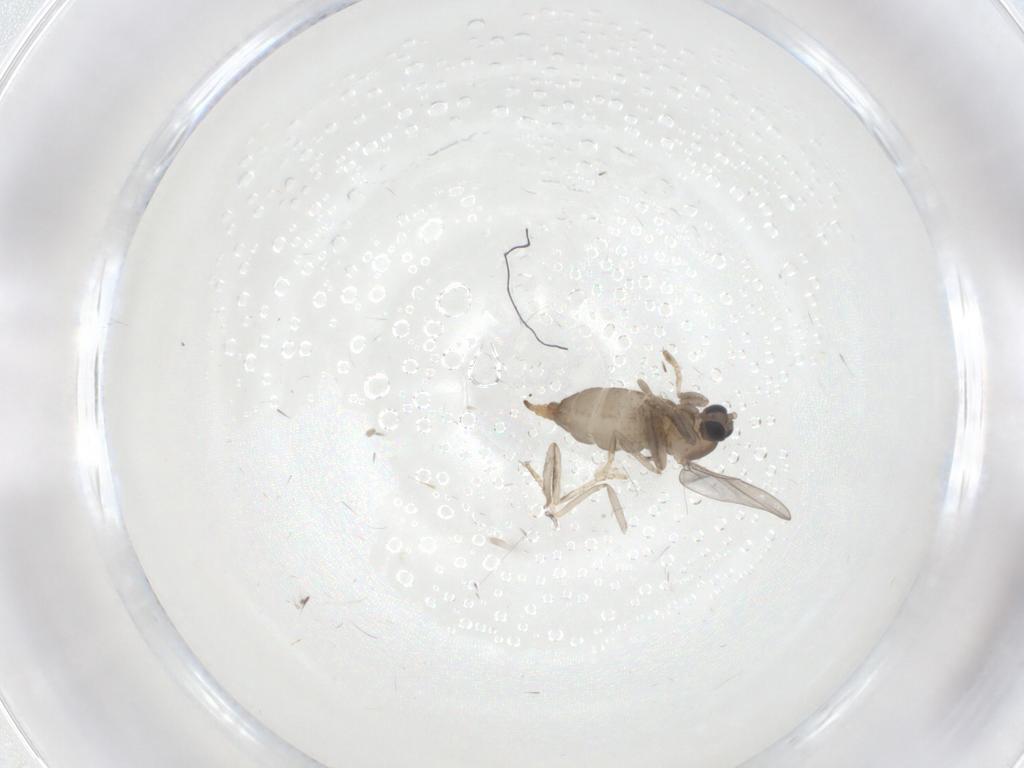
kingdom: Animalia
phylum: Arthropoda
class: Insecta
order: Diptera
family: Cecidomyiidae
